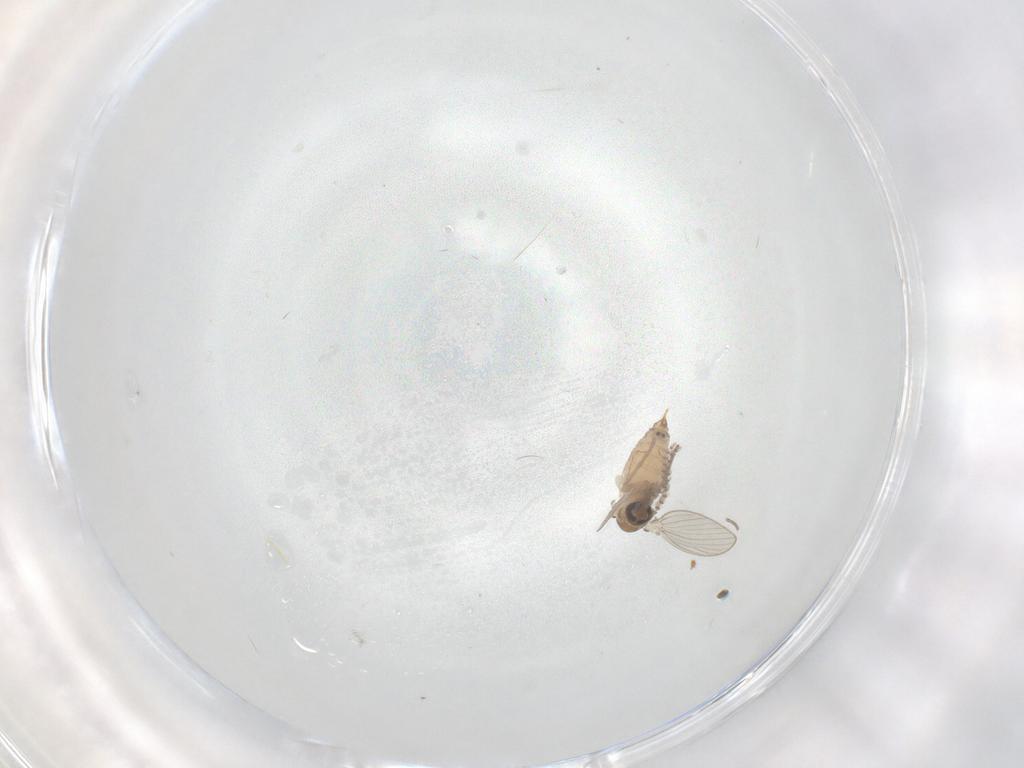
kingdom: Animalia
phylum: Arthropoda
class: Insecta
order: Diptera
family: Psychodidae
